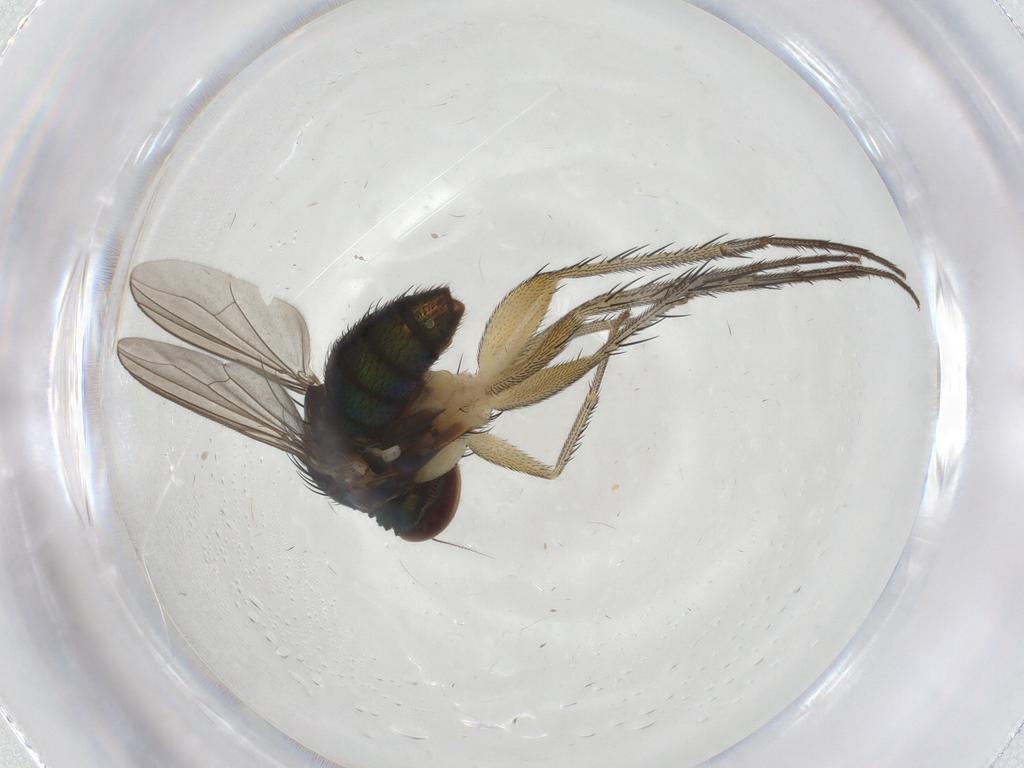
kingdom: Animalia
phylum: Arthropoda
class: Insecta
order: Diptera
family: Dolichopodidae
